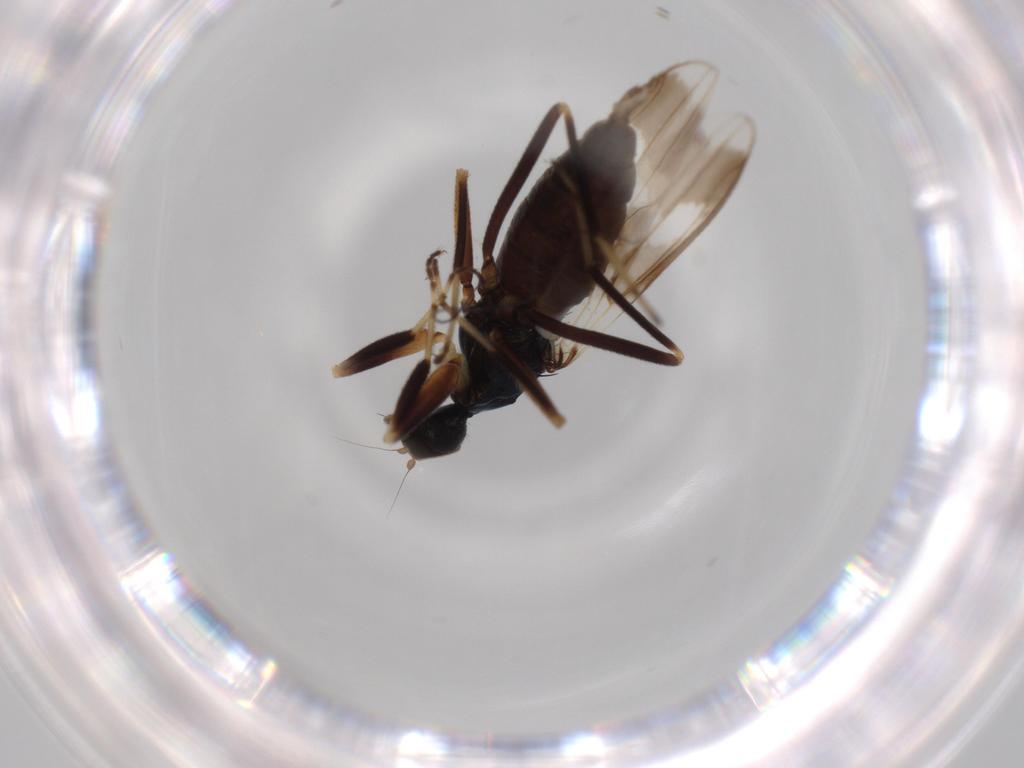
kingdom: Animalia
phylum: Arthropoda
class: Insecta
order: Diptera
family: Hybotidae
